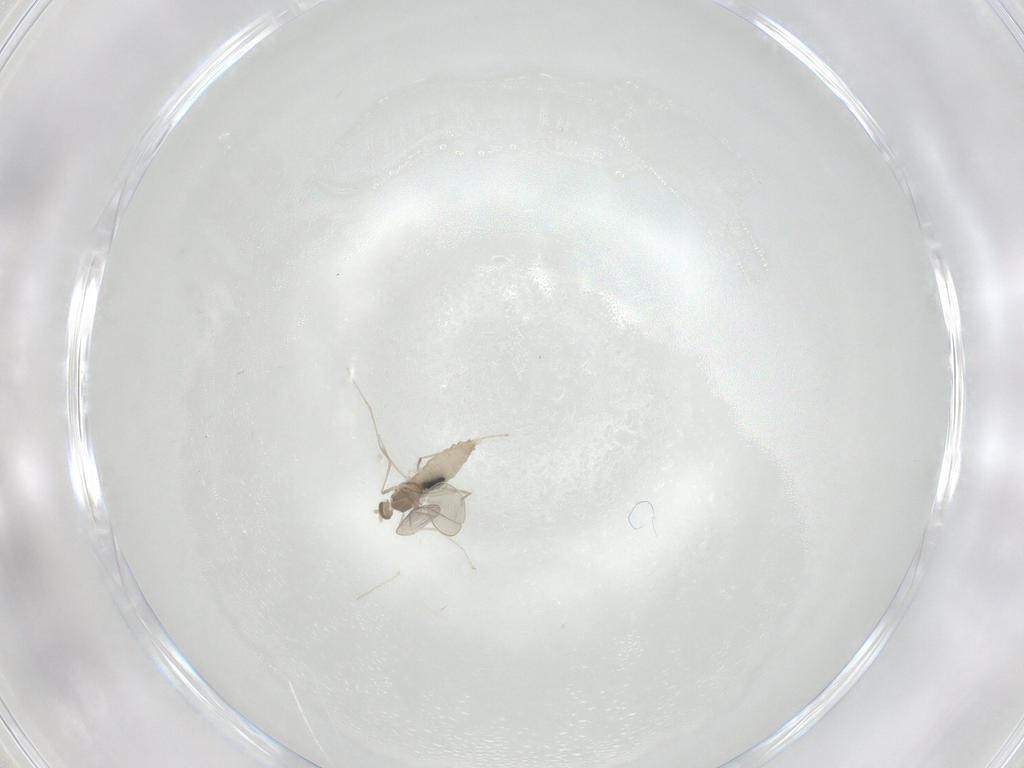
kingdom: Animalia
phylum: Arthropoda
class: Insecta
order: Diptera
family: Cecidomyiidae
